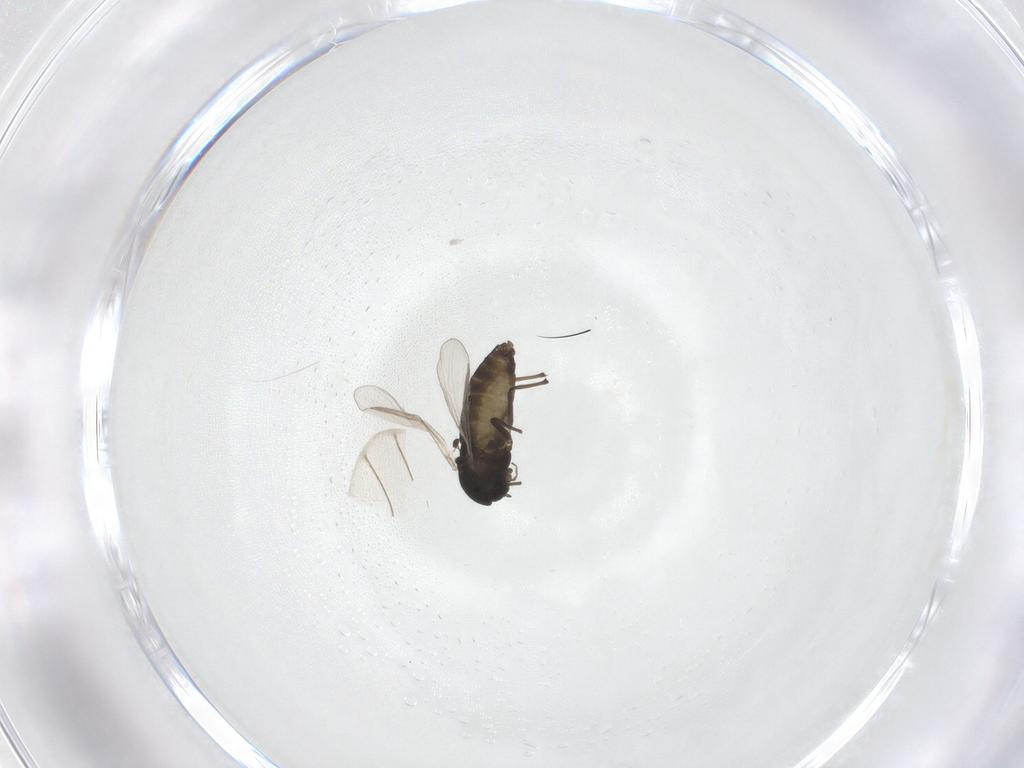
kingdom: Animalia
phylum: Arthropoda
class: Insecta
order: Diptera
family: Chironomidae
